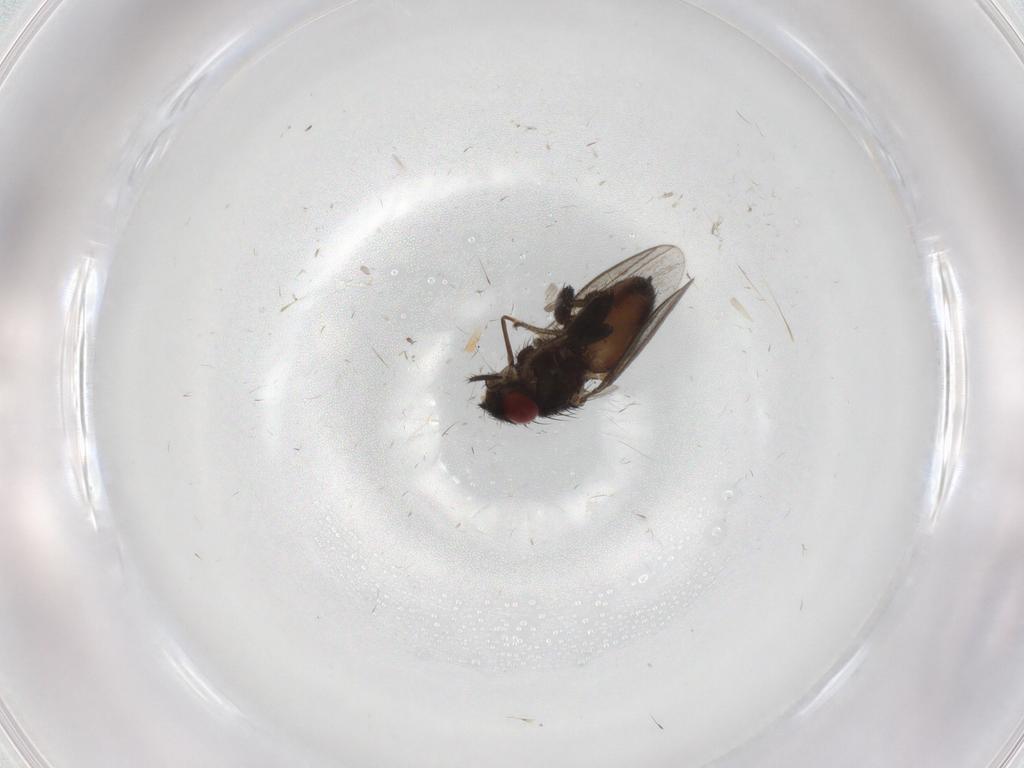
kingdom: Animalia
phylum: Arthropoda
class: Insecta
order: Diptera
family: Milichiidae
